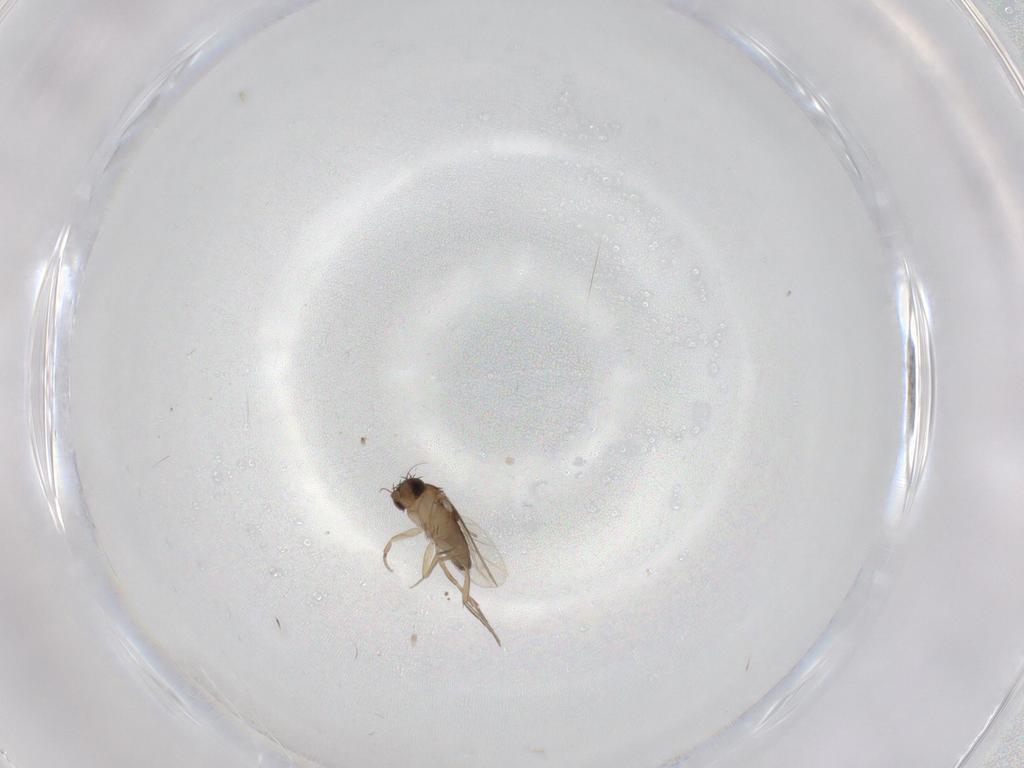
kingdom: Animalia
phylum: Arthropoda
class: Insecta
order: Diptera
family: Phoridae
